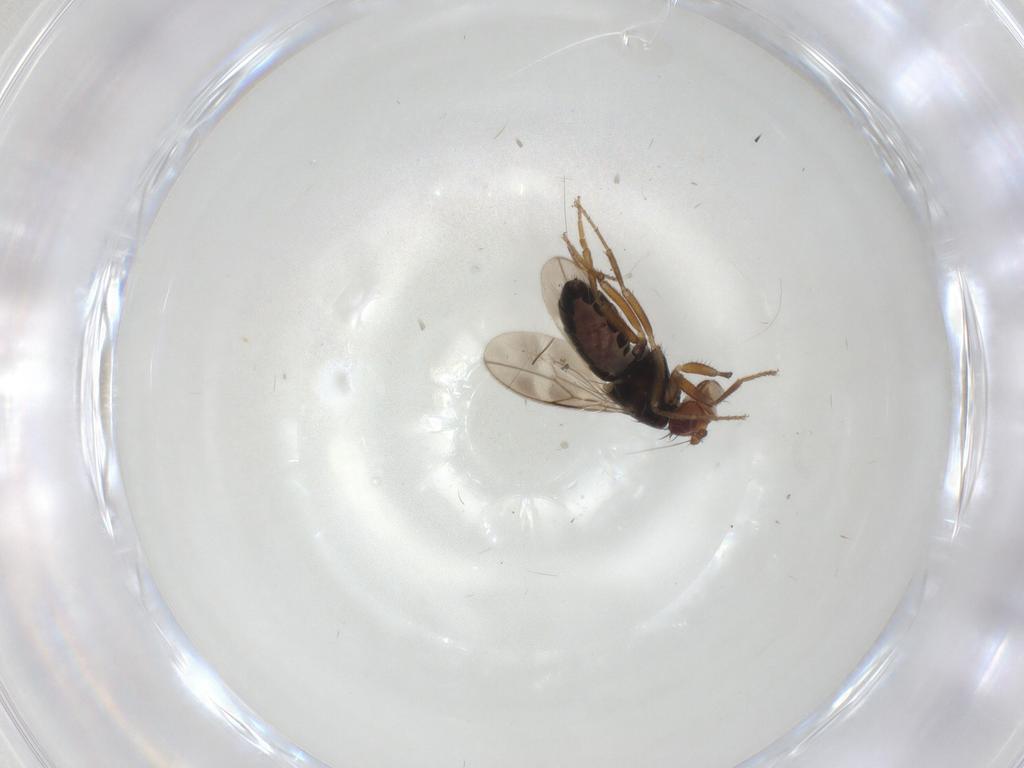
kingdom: Animalia
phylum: Arthropoda
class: Insecta
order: Diptera
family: Sphaeroceridae
